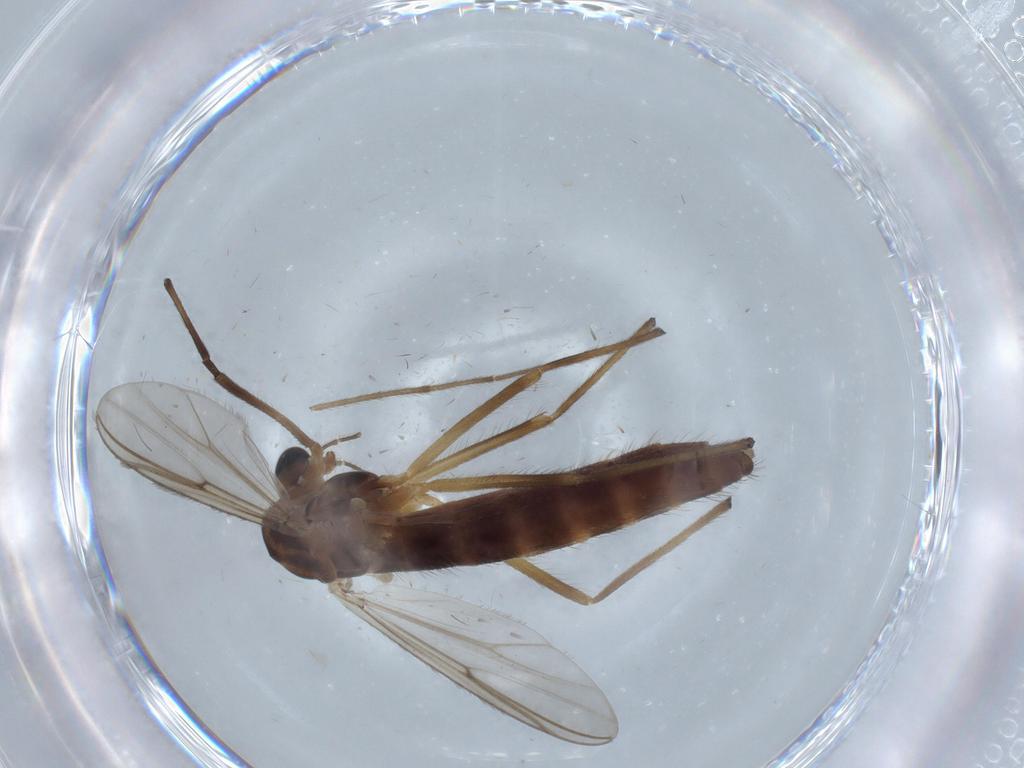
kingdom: Animalia
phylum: Arthropoda
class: Insecta
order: Diptera
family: Cecidomyiidae
